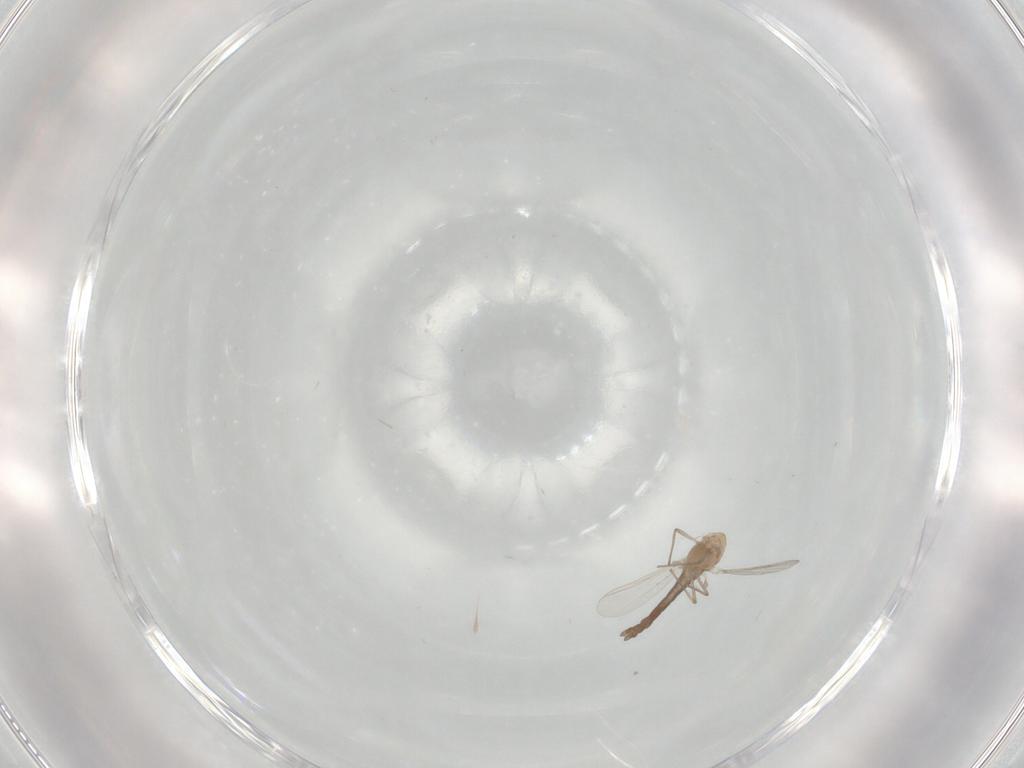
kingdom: Animalia
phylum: Arthropoda
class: Insecta
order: Diptera
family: Chironomidae
